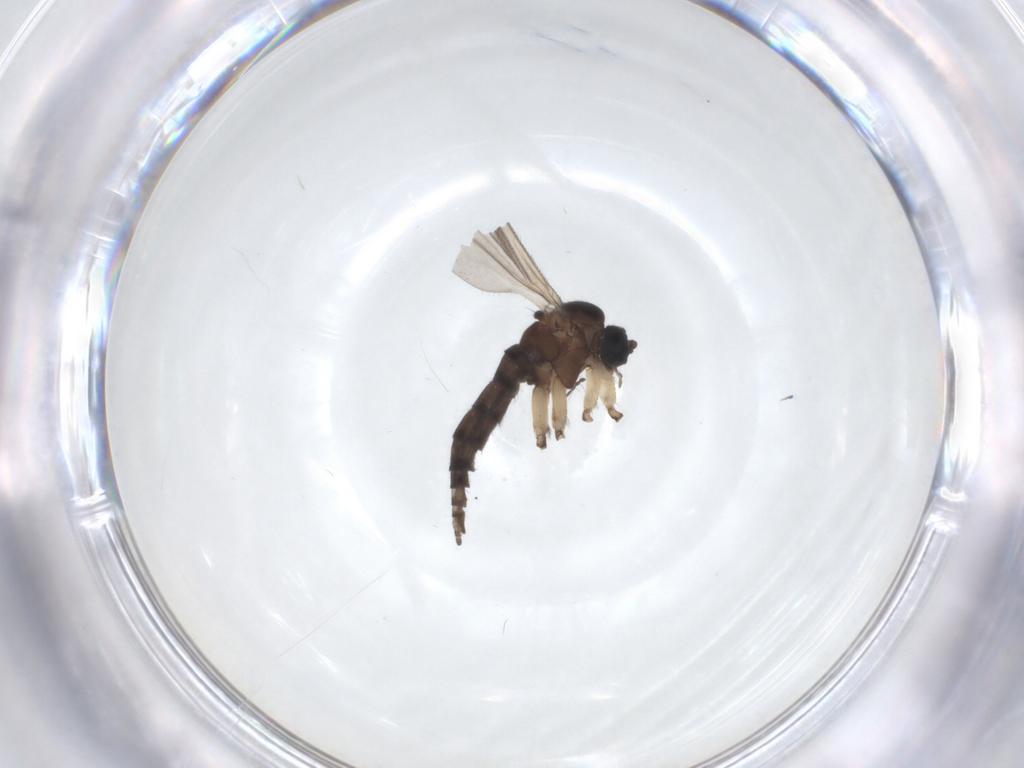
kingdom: Animalia
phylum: Arthropoda
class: Insecta
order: Diptera
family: Sciaridae
